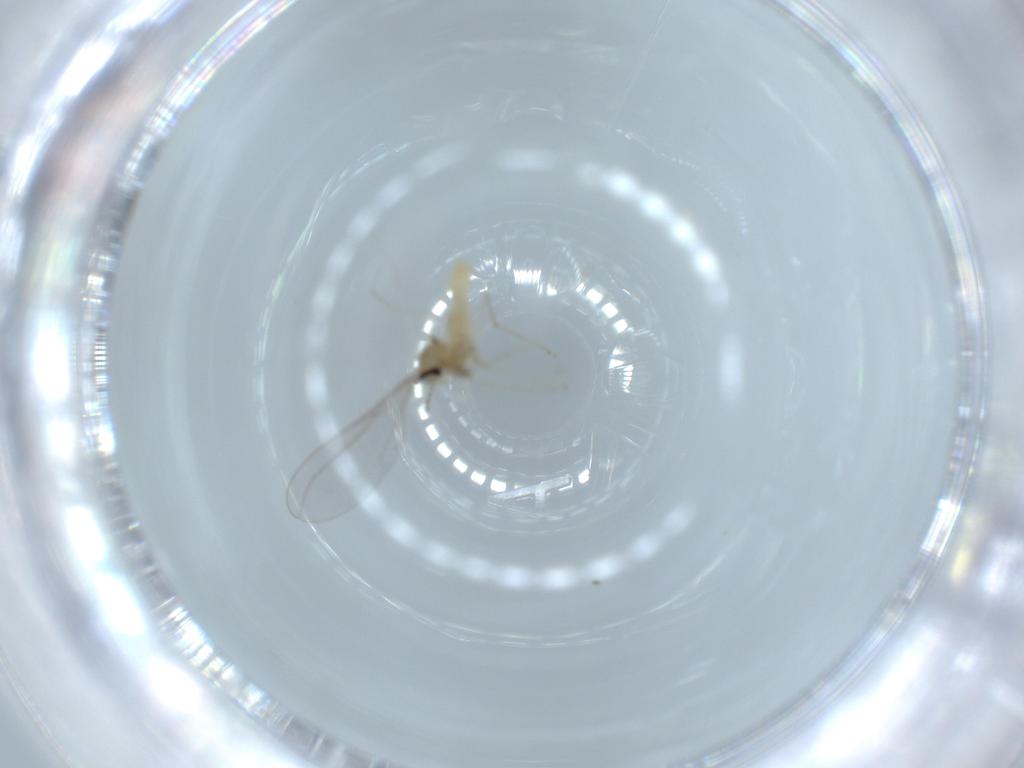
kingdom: Animalia
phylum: Arthropoda
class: Insecta
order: Diptera
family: Cecidomyiidae
